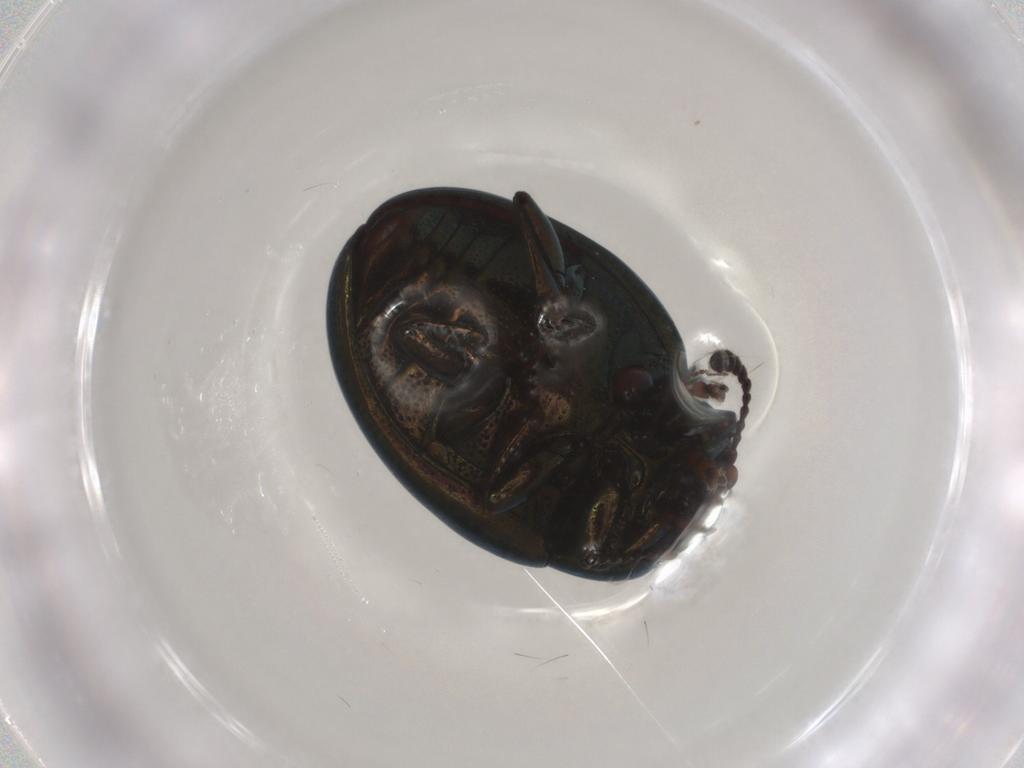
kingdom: Animalia
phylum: Arthropoda
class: Insecta
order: Coleoptera
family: Chrysomelidae
